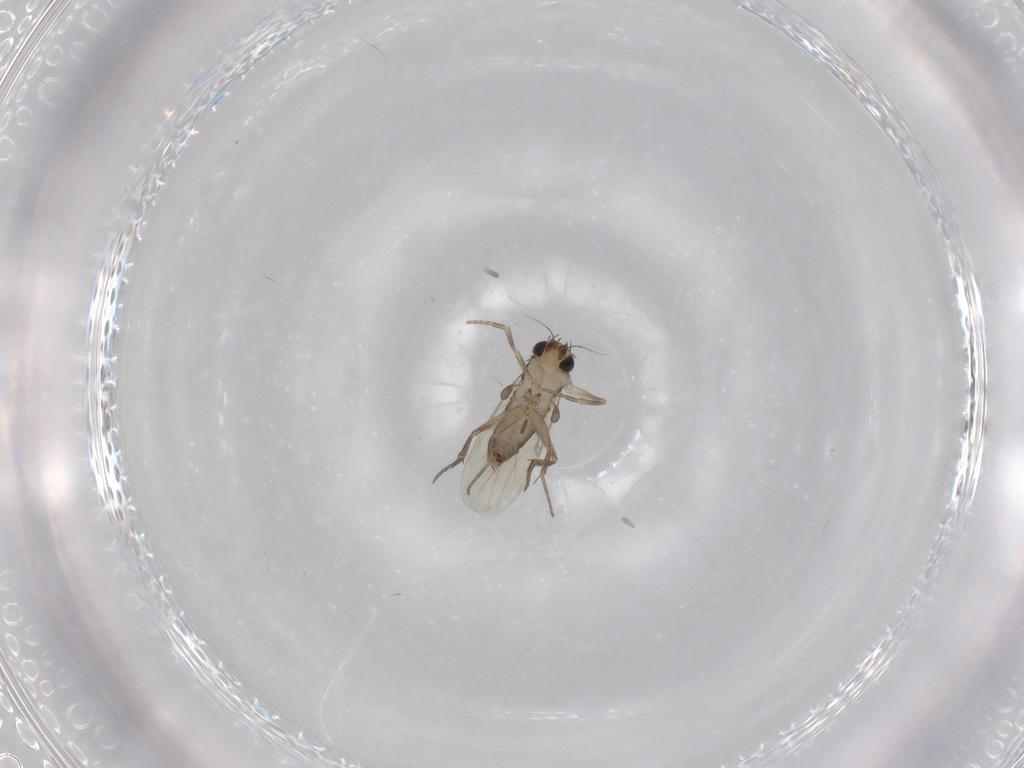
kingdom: Animalia
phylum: Arthropoda
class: Insecta
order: Diptera
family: Phoridae
